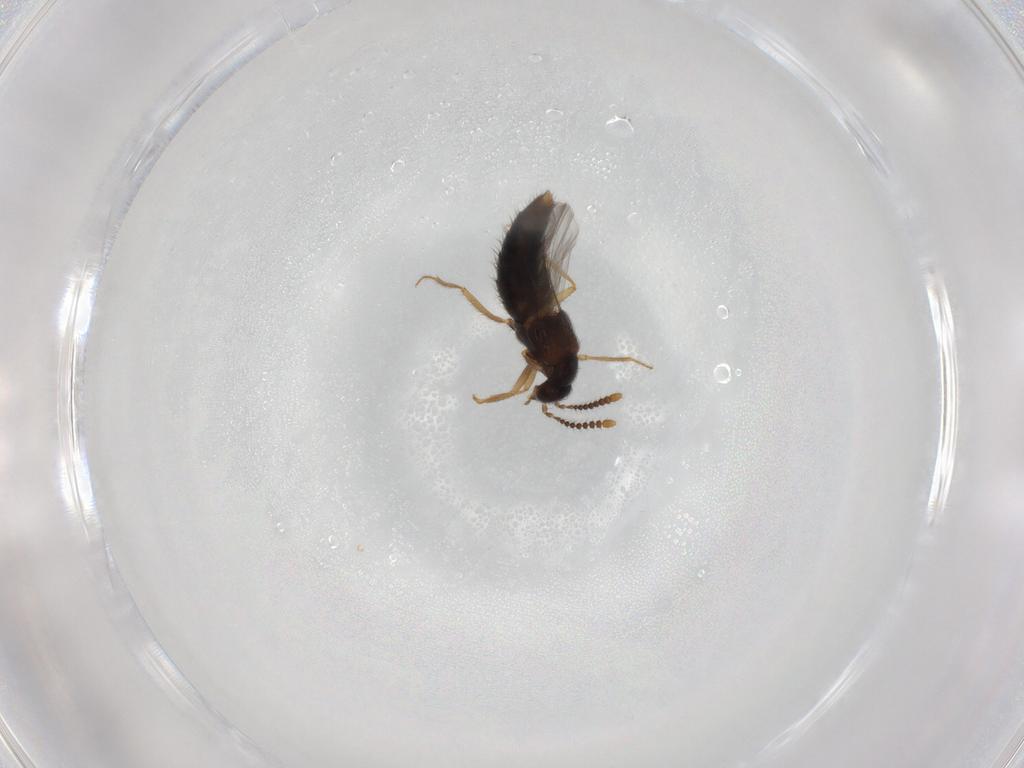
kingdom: Animalia
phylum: Arthropoda
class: Insecta
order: Coleoptera
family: Staphylinidae
